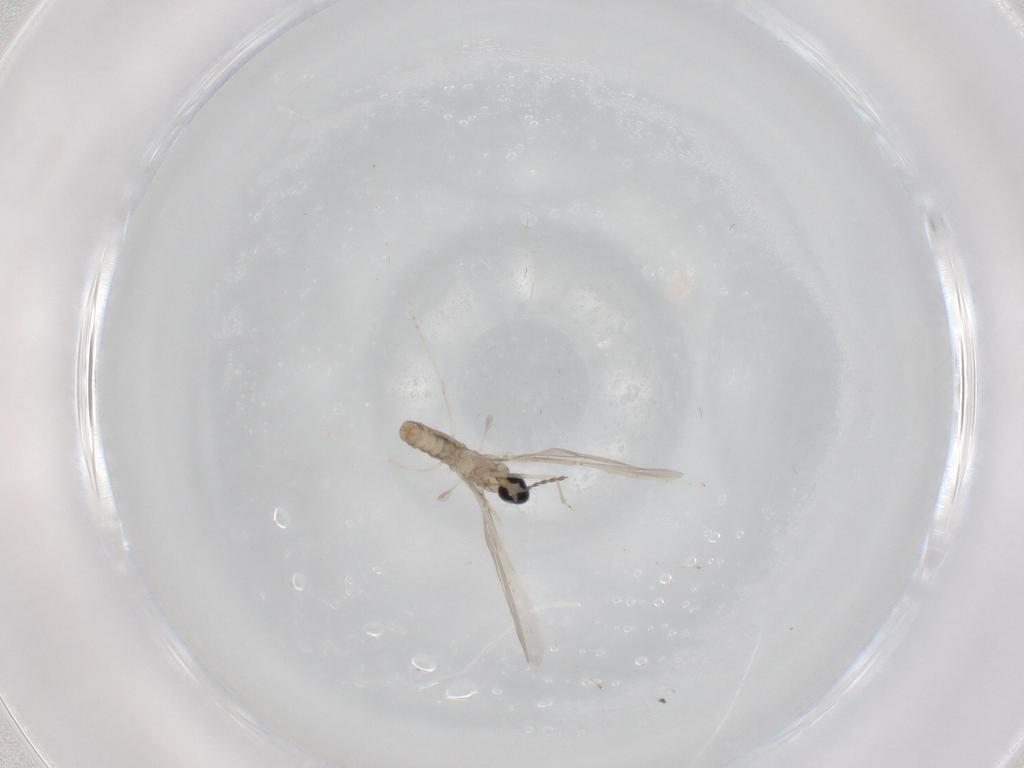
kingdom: Animalia
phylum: Arthropoda
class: Insecta
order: Diptera
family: Cecidomyiidae
